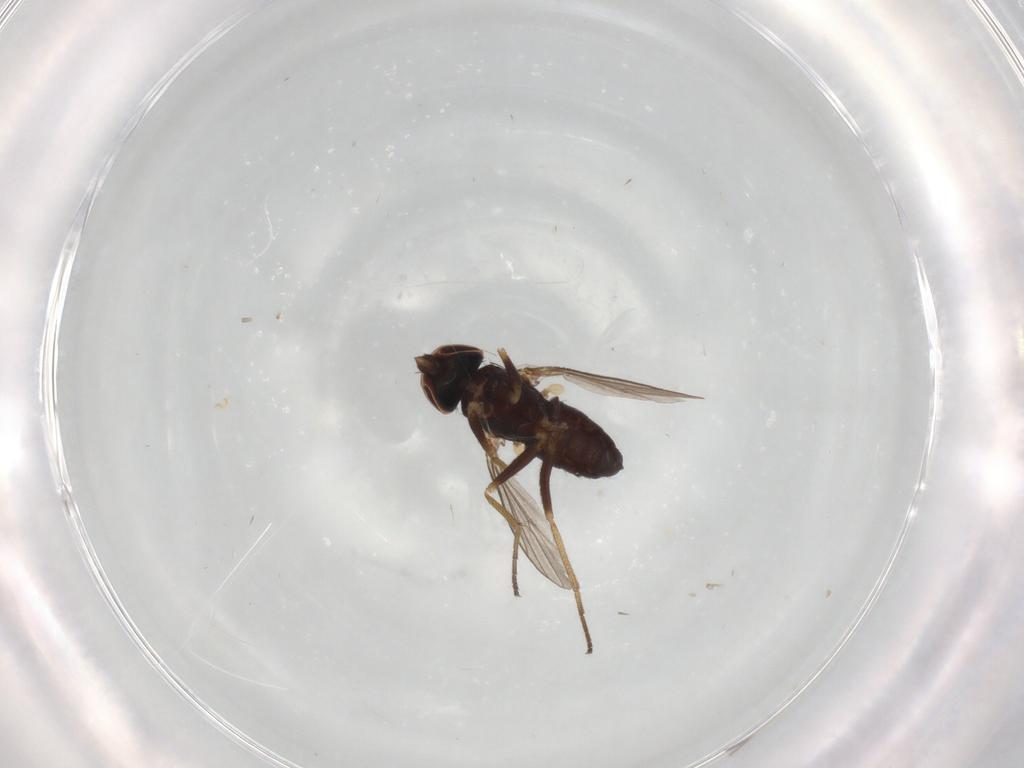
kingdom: Animalia
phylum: Arthropoda
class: Insecta
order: Diptera
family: Dolichopodidae
